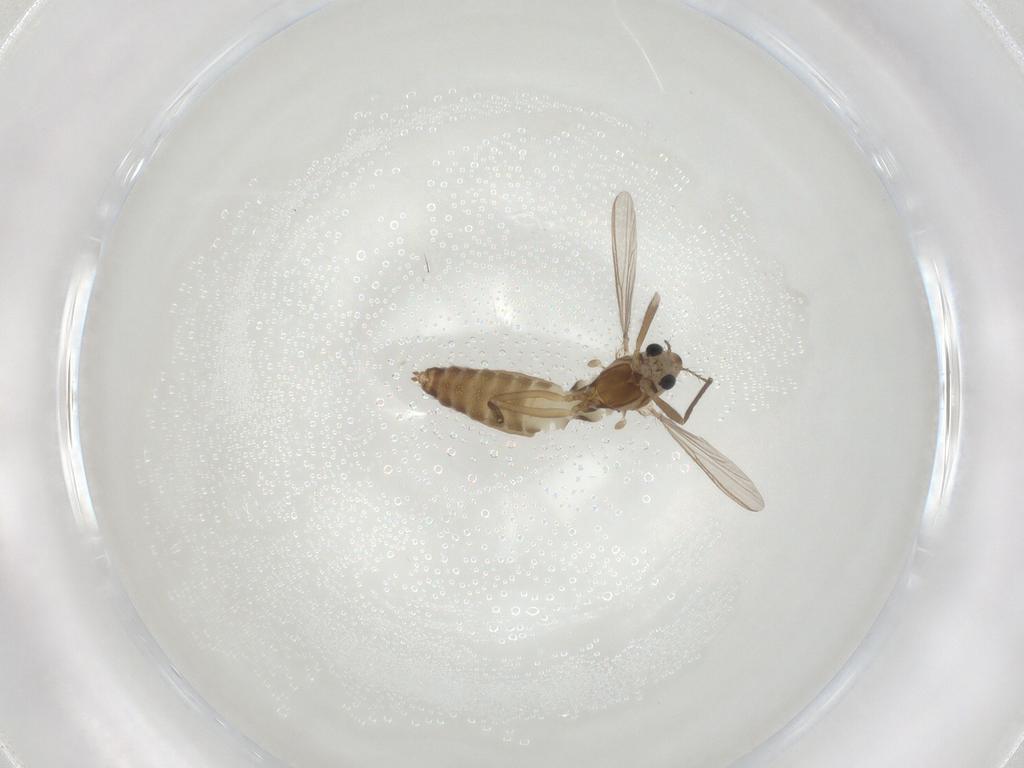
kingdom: Animalia
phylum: Arthropoda
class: Insecta
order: Diptera
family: Chironomidae
